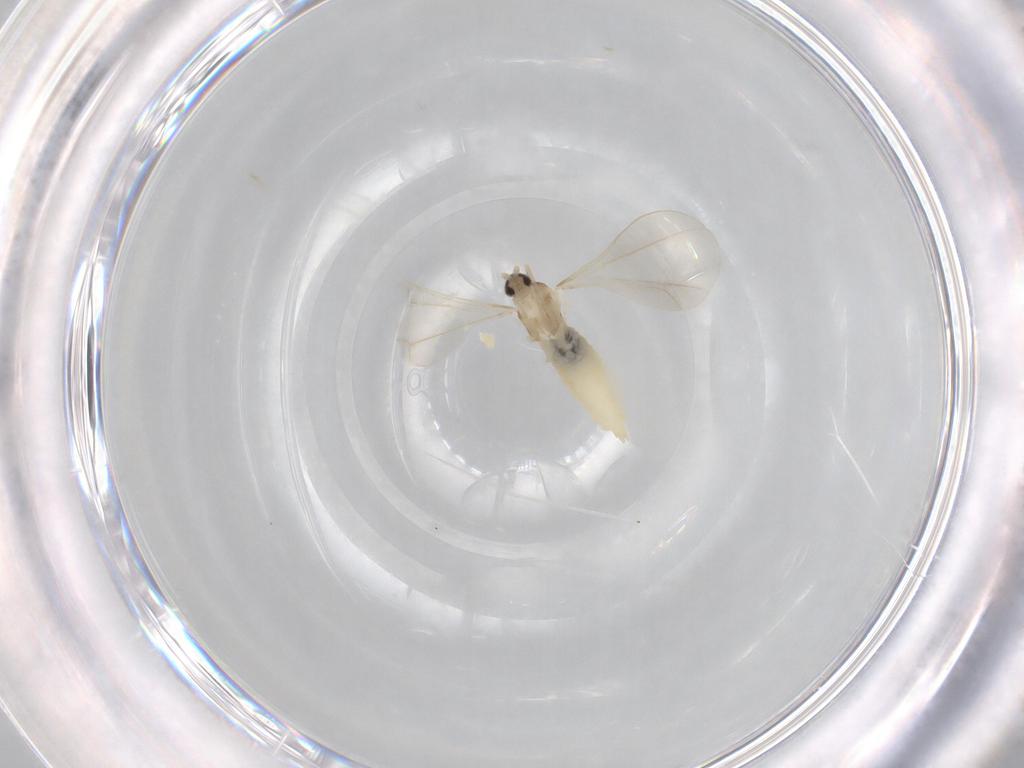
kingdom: Animalia
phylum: Arthropoda
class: Insecta
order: Diptera
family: Cecidomyiidae
